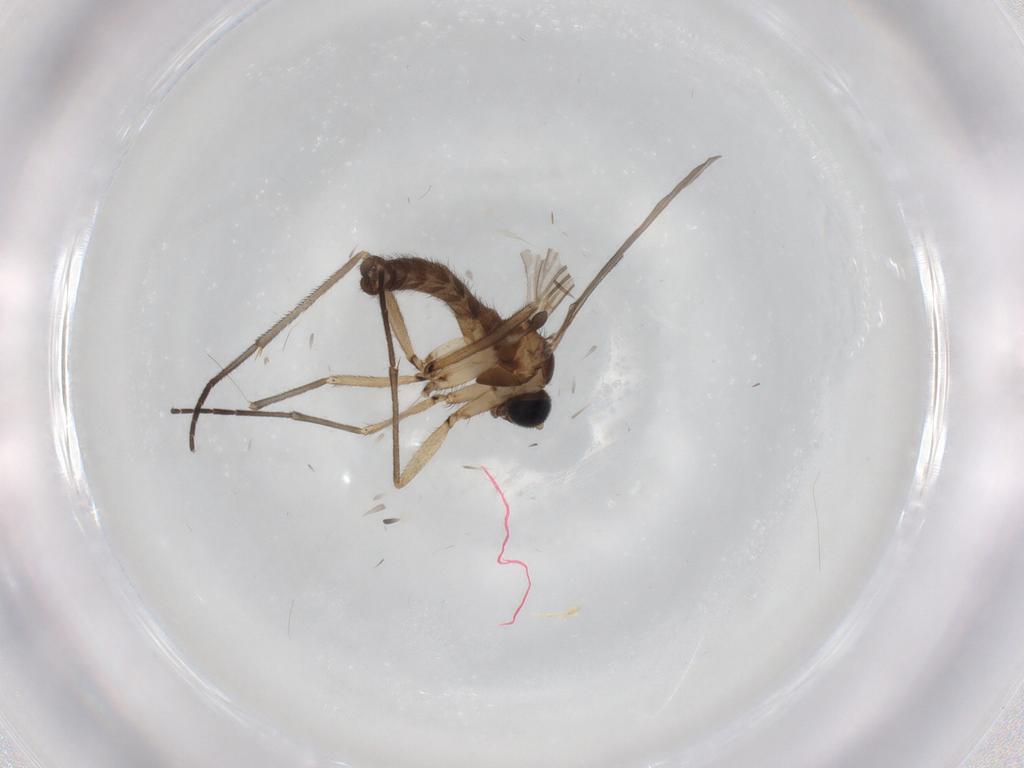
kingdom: Animalia
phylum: Arthropoda
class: Insecta
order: Diptera
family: Sciaridae
